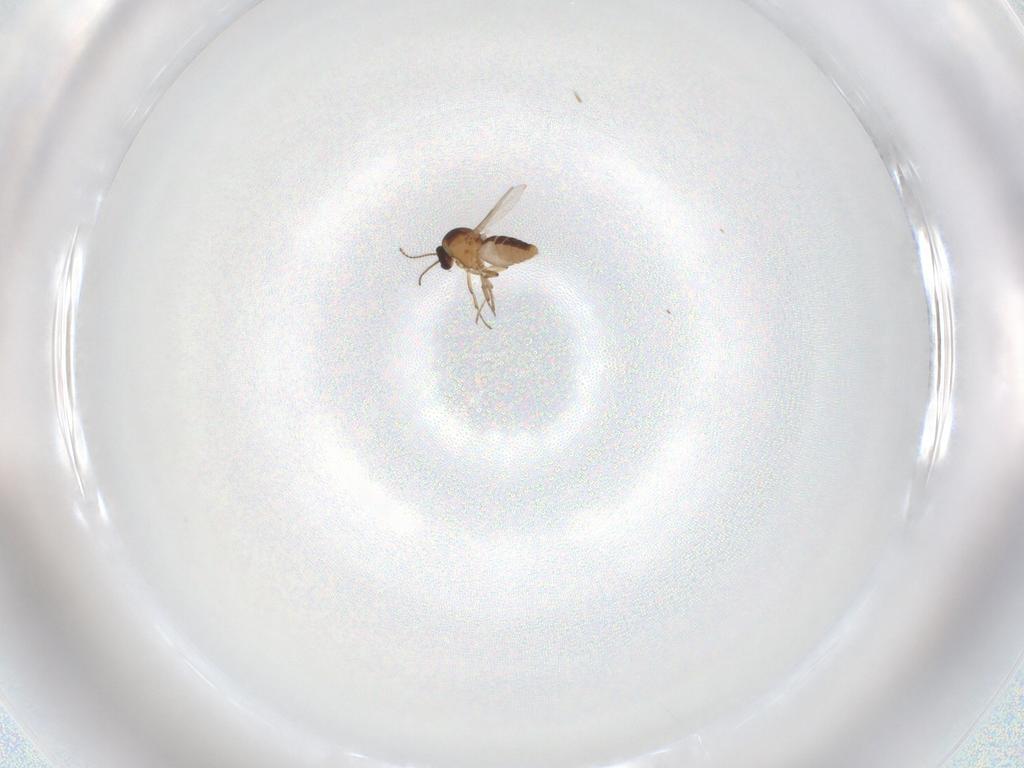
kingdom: Animalia
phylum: Arthropoda
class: Insecta
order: Diptera
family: Ceratopogonidae
